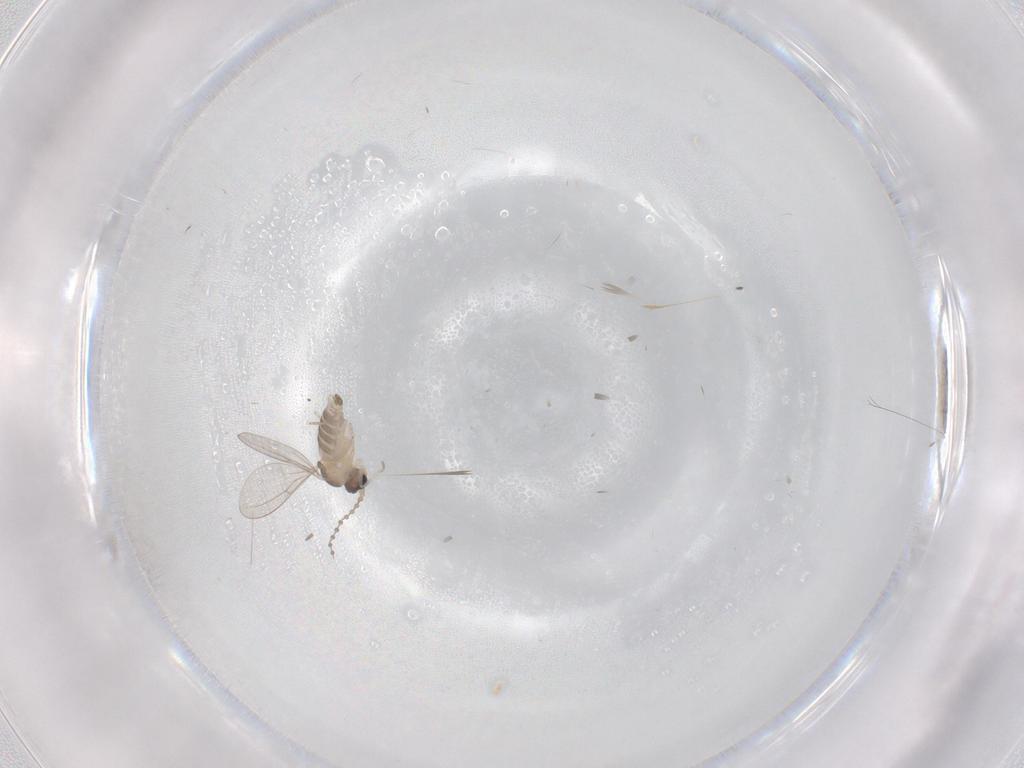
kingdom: Animalia
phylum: Arthropoda
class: Insecta
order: Diptera
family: Cecidomyiidae
